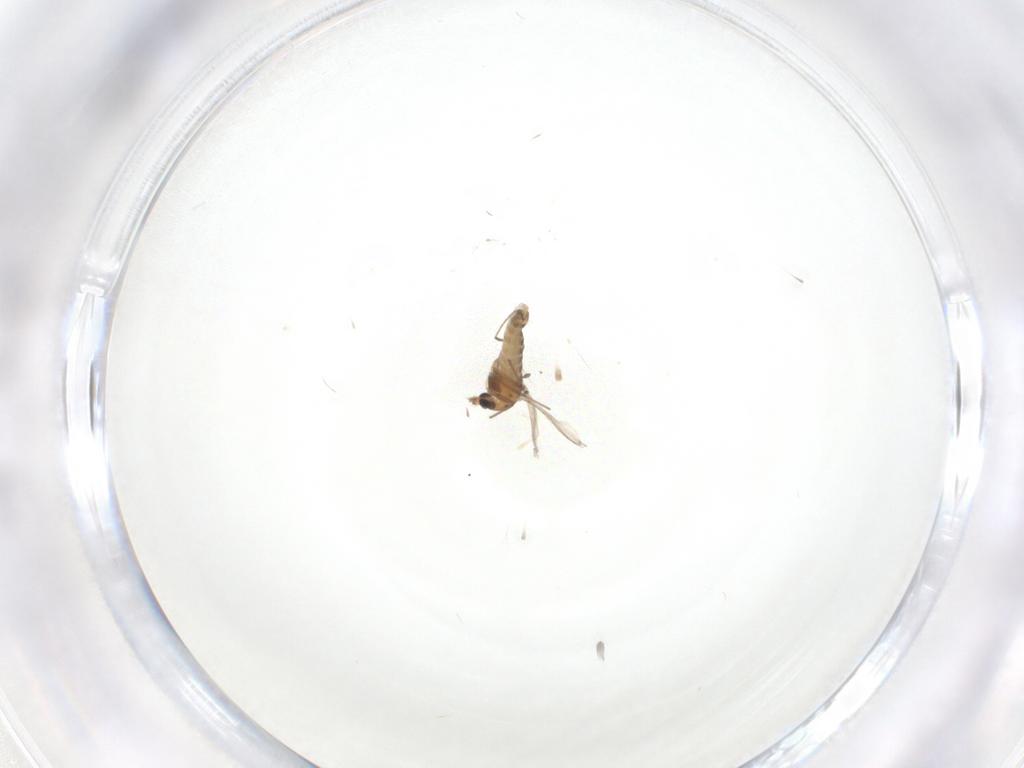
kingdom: Animalia
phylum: Arthropoda
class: Insecta
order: Diptera
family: Chironomidae
